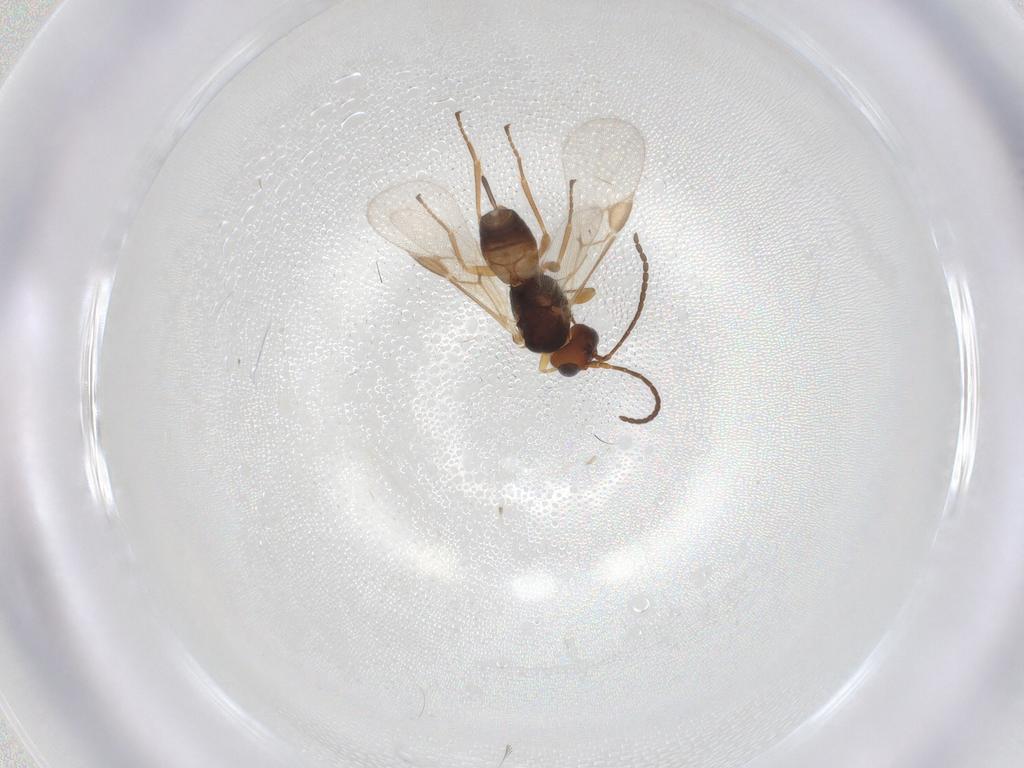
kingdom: Animalia
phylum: Arthropoda
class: Insecta
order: Hymenoptera
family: Braconidae
